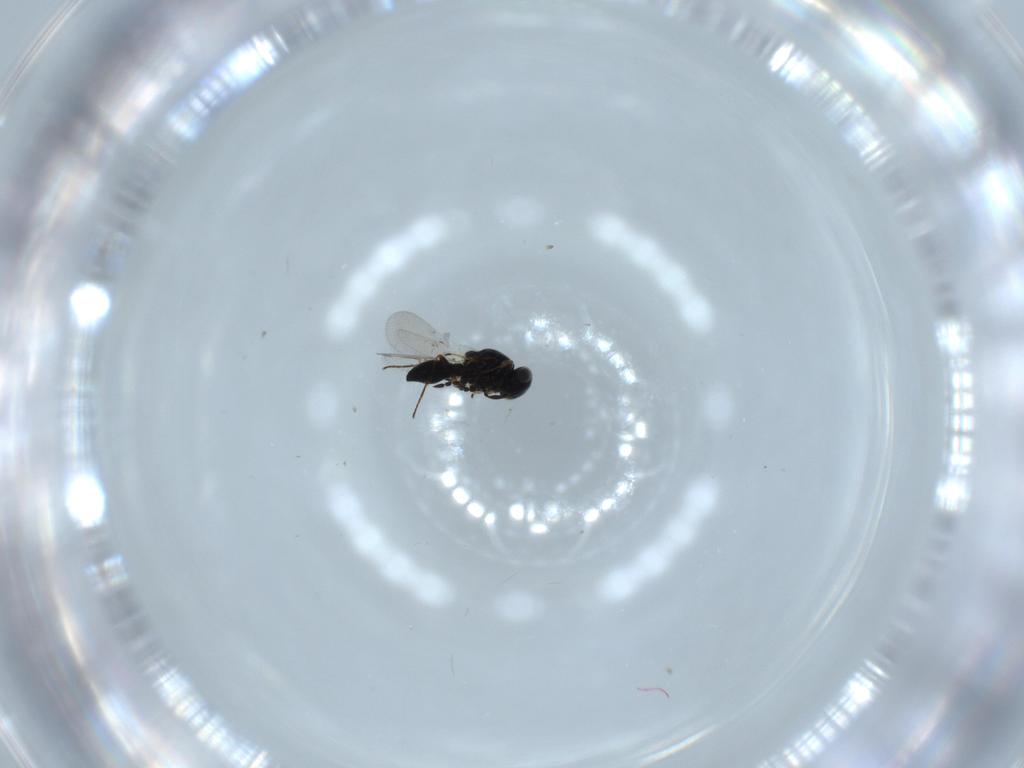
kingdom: Animalia
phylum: Arthropoda
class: Insecta
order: Hymenoptera
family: Platygastridae
